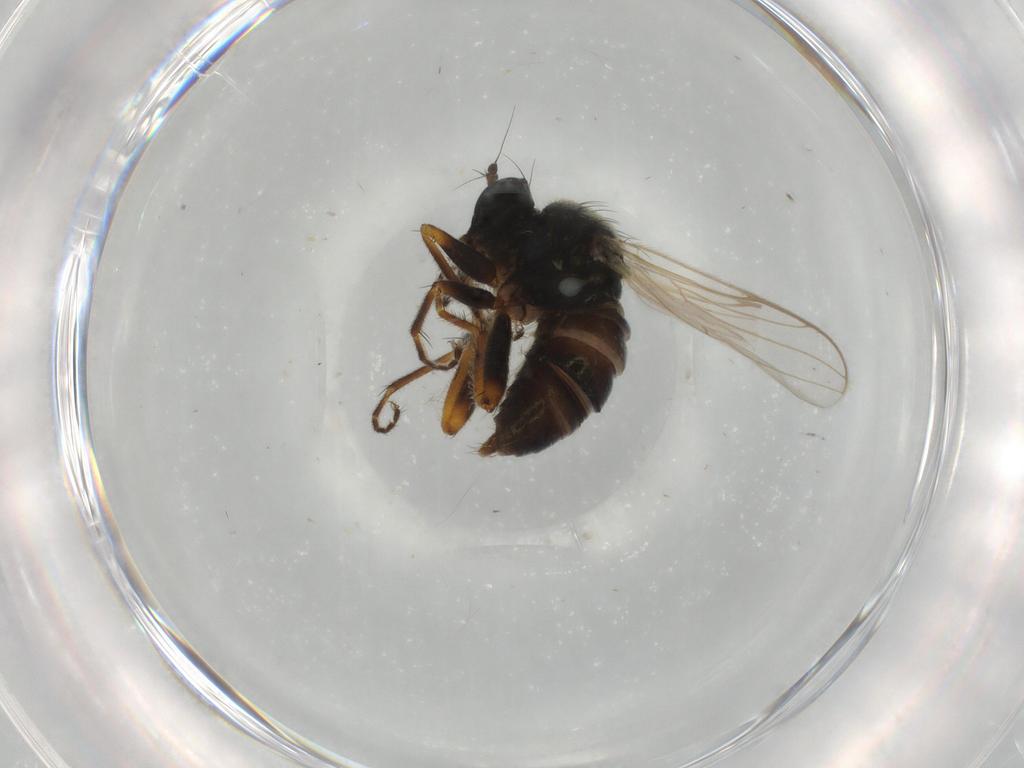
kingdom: Animalia
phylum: Arthropoda
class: Insecta
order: Diptera
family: Hybotidae
